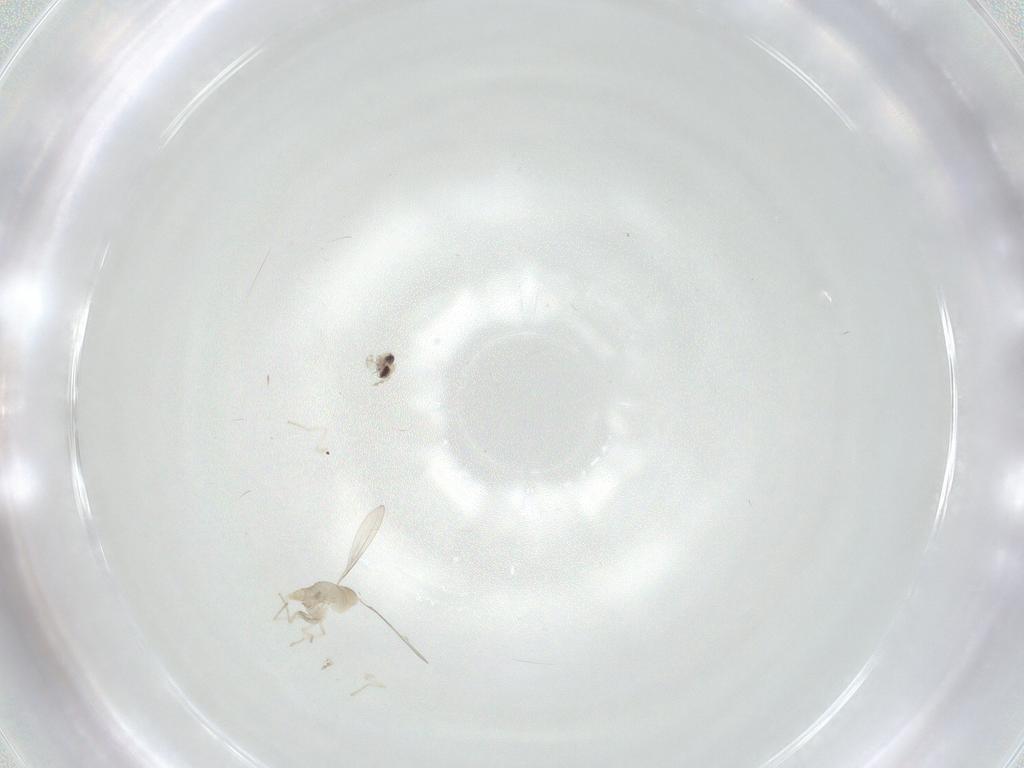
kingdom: Animalia
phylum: Arthropoda
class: Insecta
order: Diptera
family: Cecidomyiidae
